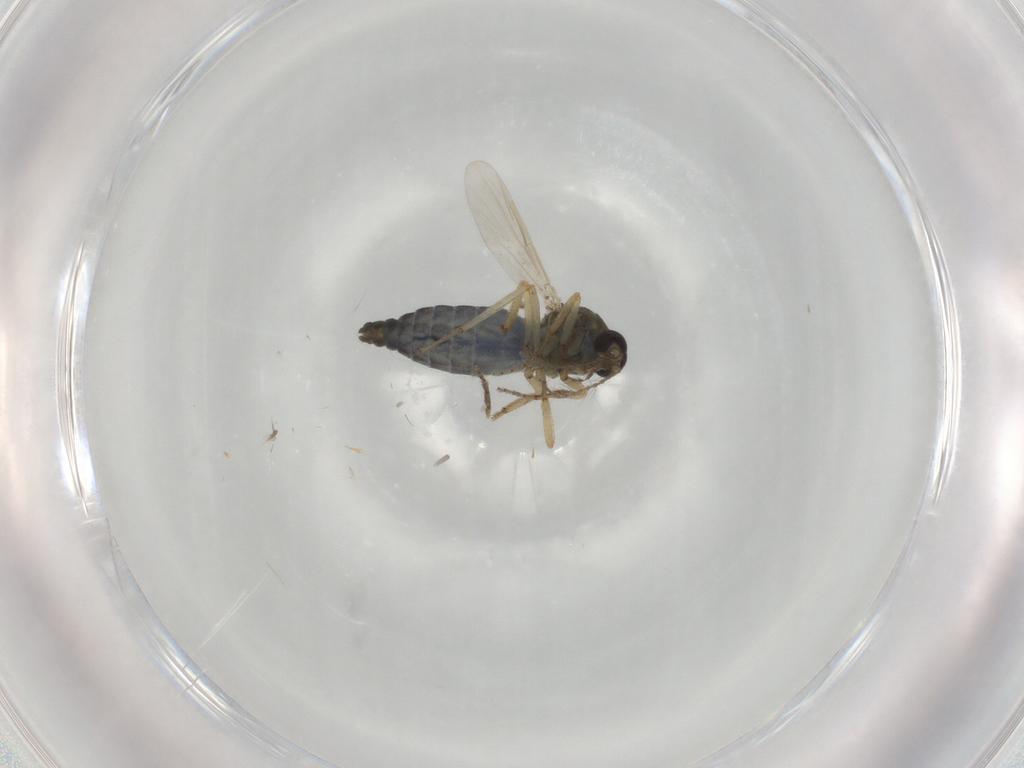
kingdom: Animalia
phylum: Arthropoda
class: Insecta
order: Diptera
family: Ceratopogonidae
